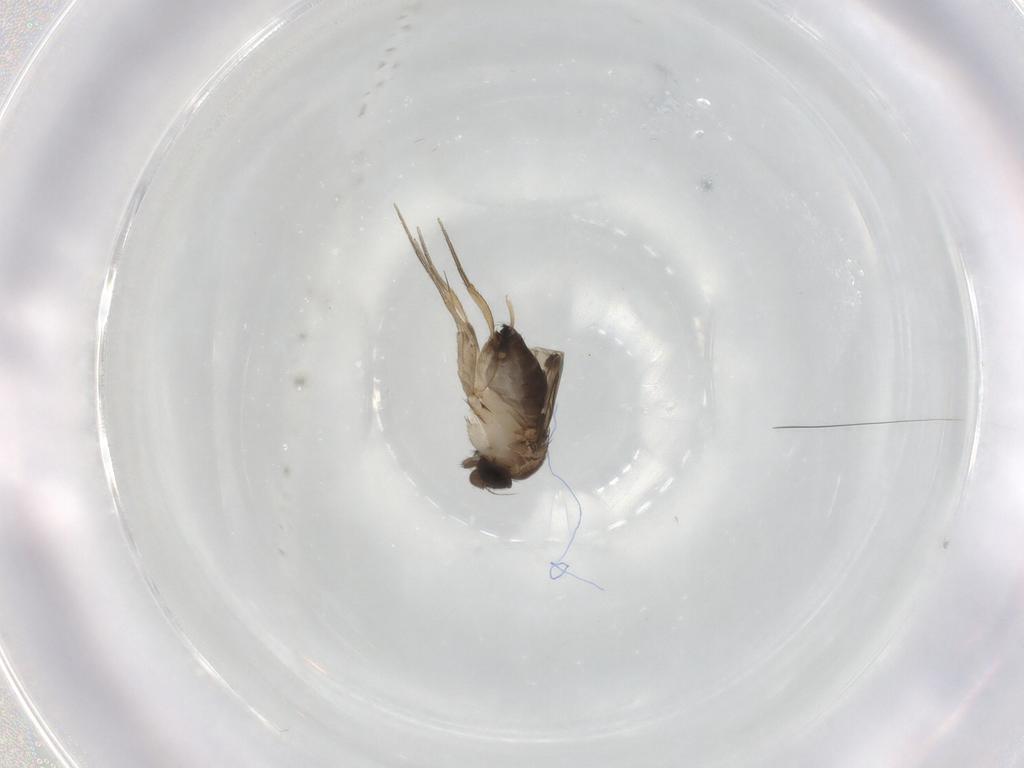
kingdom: Animalia
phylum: Arthropoda
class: Insecta
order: Diptera
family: Phoridae
